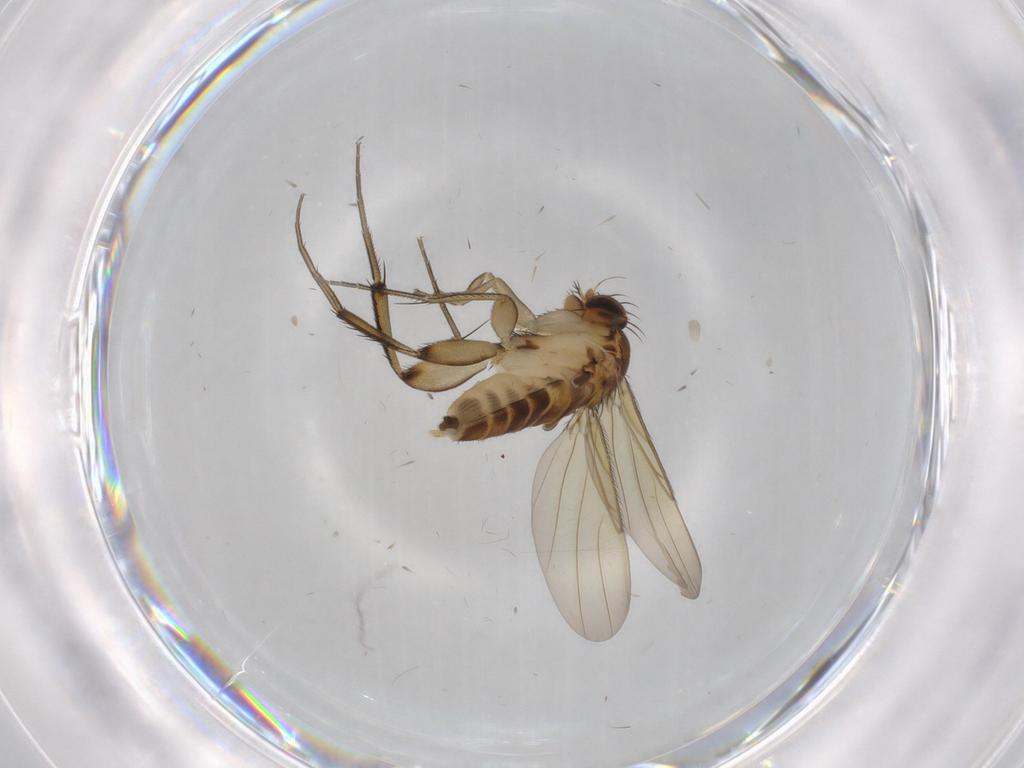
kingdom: Animalia
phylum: Arthropoda
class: Insecta
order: Diptera
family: Phoridae
